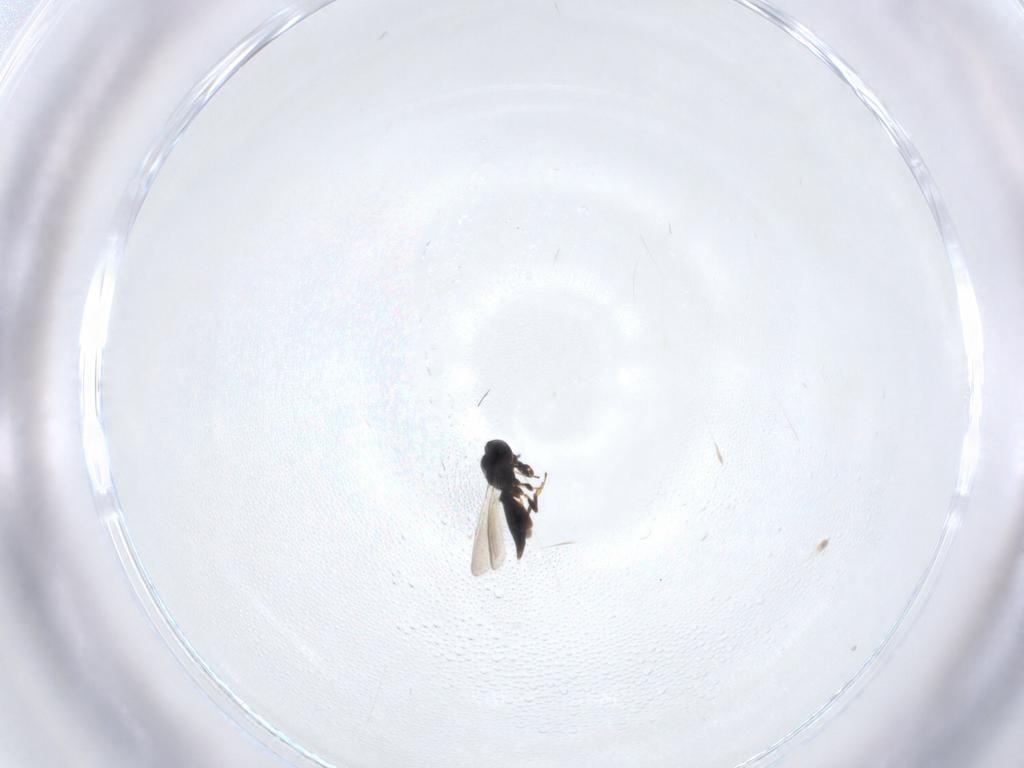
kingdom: Animalia
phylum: Arthropoda
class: Insecta
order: Hymenoptera
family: Platygastridae
